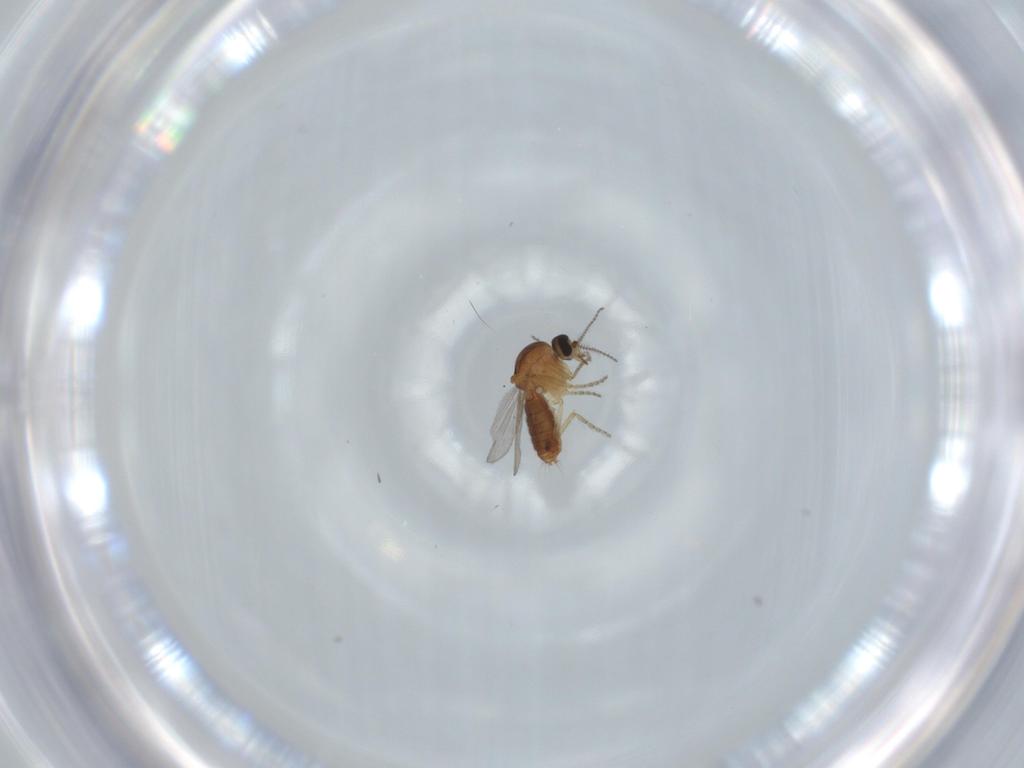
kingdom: Animalia
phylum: Arthropoda
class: Insecta
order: Diptera
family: Ceratopogonidae
